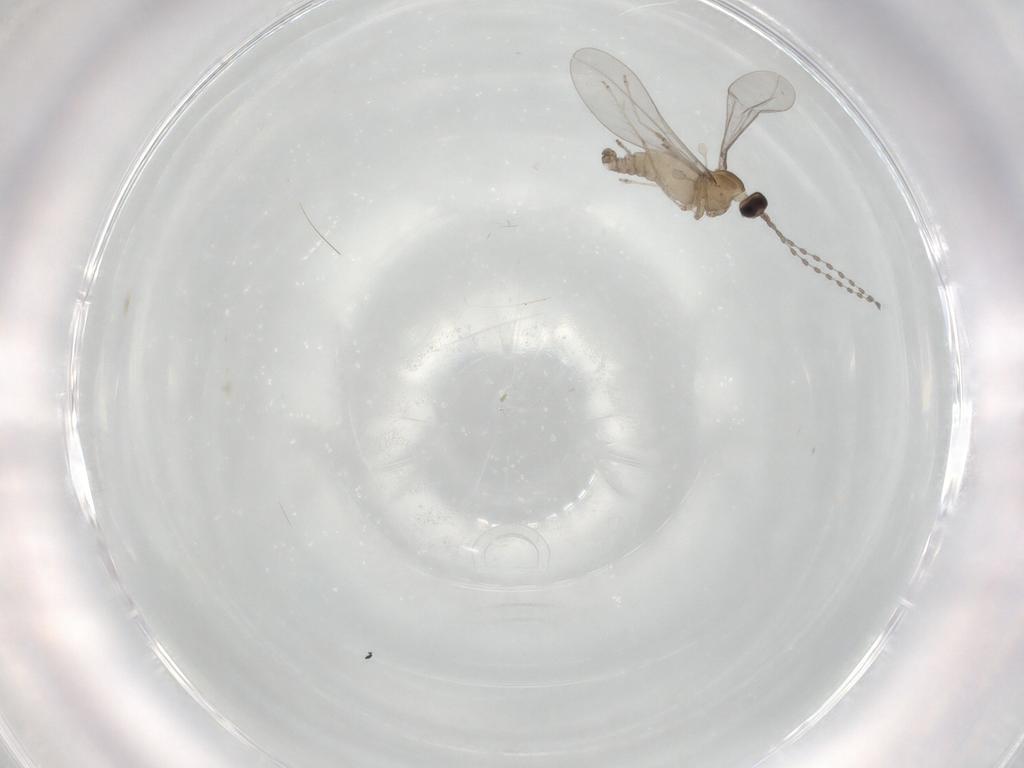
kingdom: Animalia
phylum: Arthropoda
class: Insecta
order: Diptera
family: Cecidomyiidae
